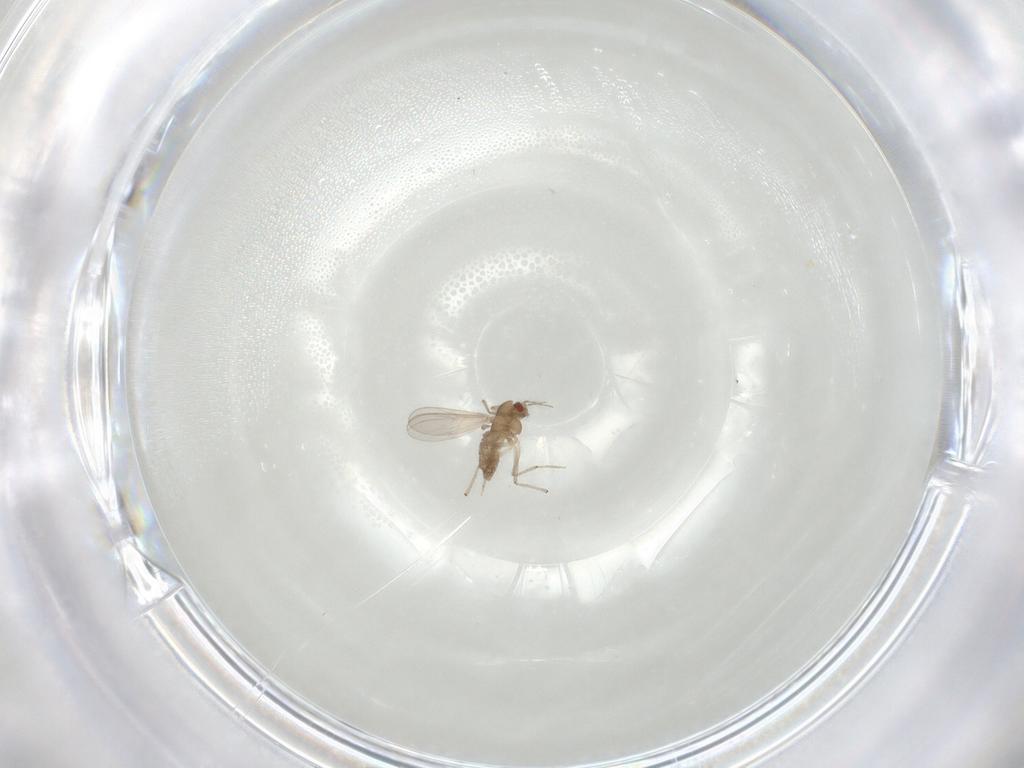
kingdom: Animalia
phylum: Arthropoda
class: Insecta
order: Diptera
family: Chironomidae
